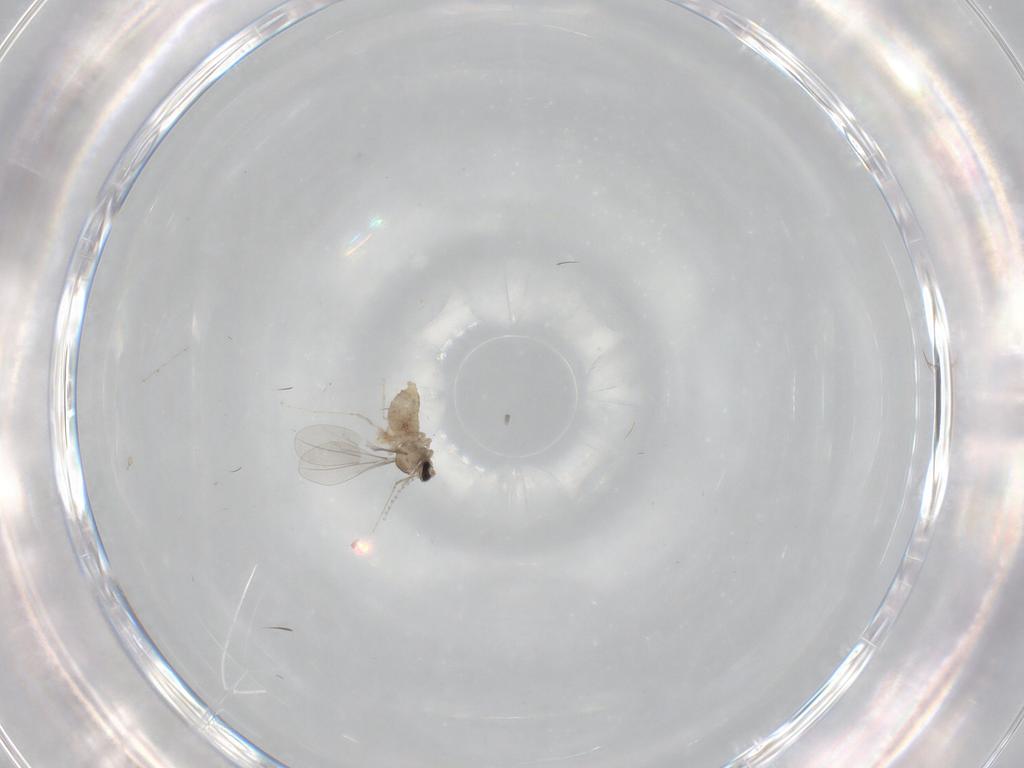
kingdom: Animalia
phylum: Arthropoda
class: Insecta
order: Diptera
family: Cecidomyiidae
